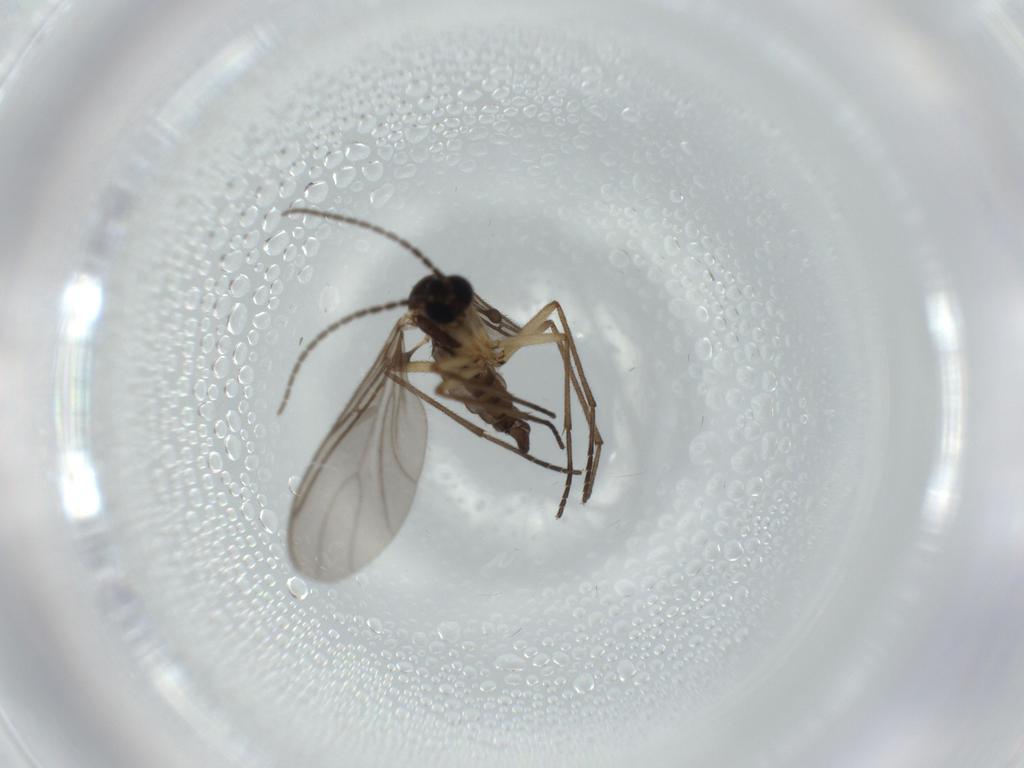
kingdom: Animalia
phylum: Arthropoda
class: Insecta
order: Diptera
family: Sciaridae
